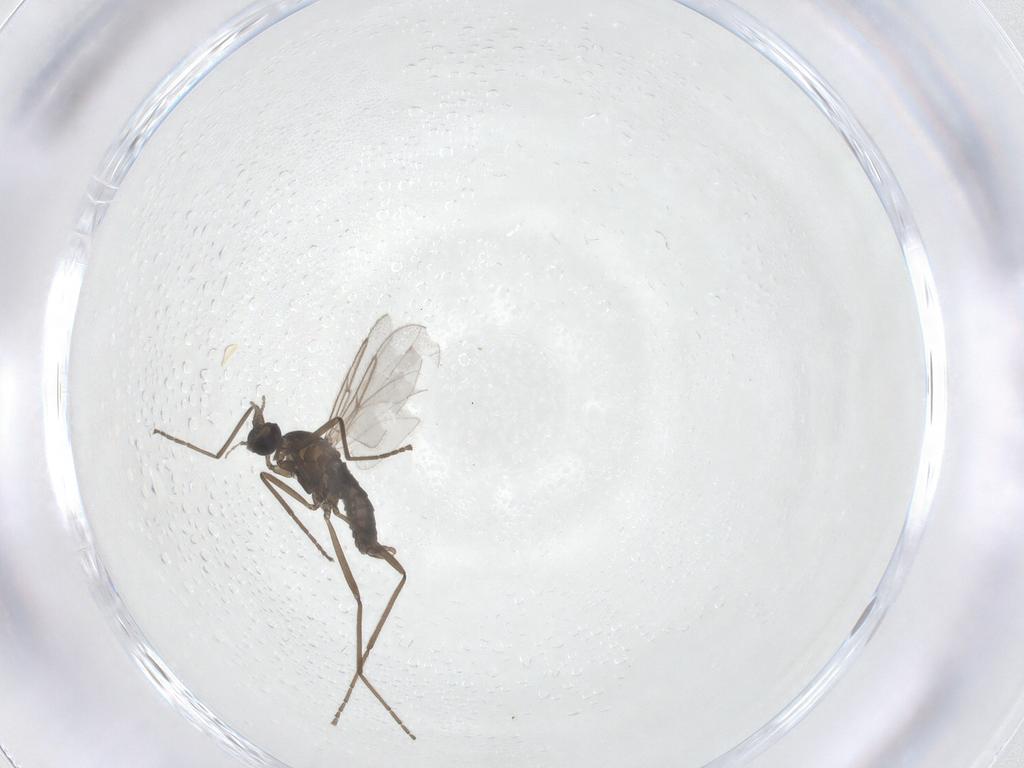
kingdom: Animalia
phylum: Arthropoda
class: Insecta
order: Diptera
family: Cecidomyiidae
